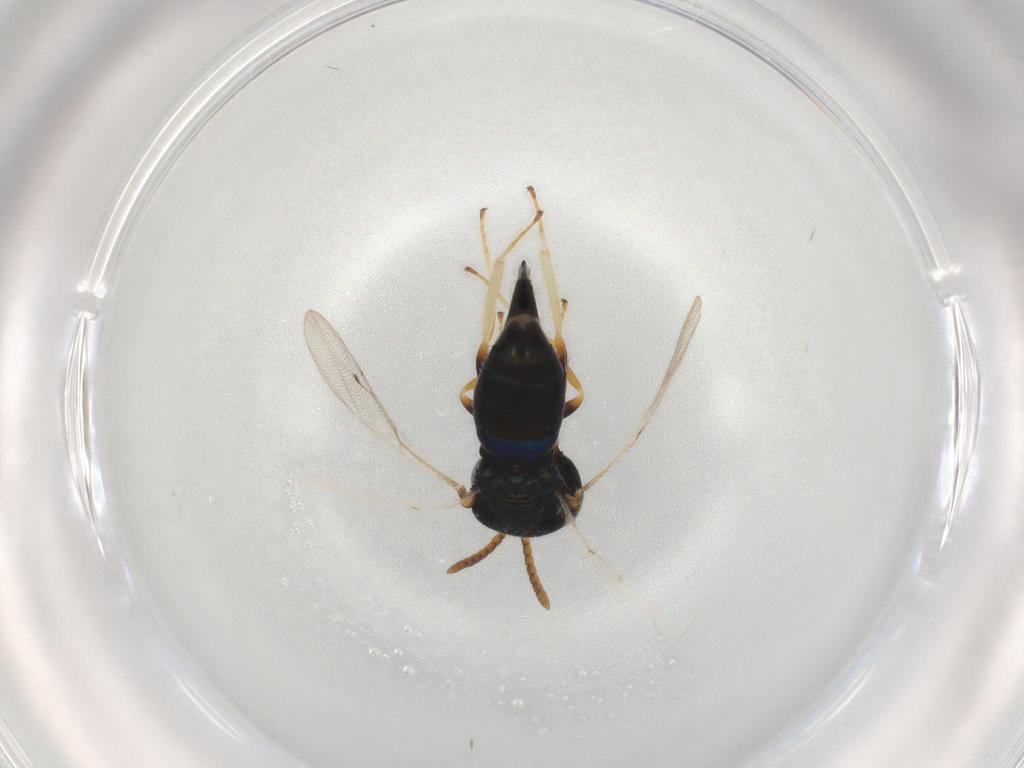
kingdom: Animalia
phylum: Arthropoda
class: Insecta
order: Hymenoptera
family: Pteromalidae
